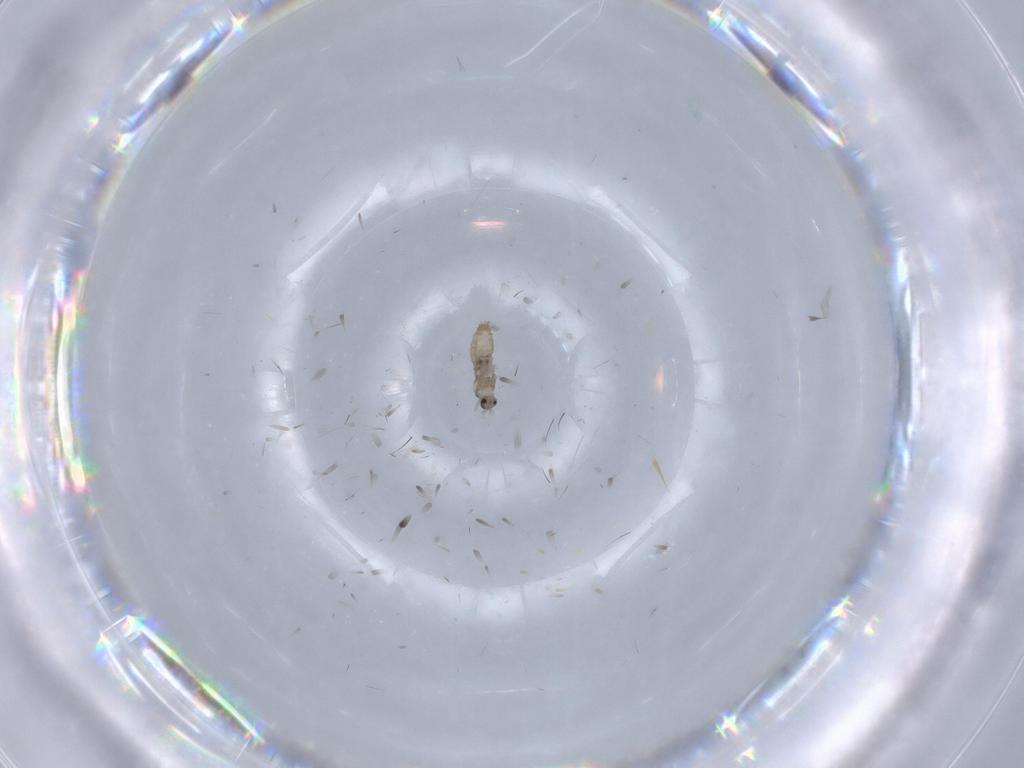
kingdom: Animalia
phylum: Arthropoda
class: Insecta
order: Diptera
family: Cecidomyiidae
